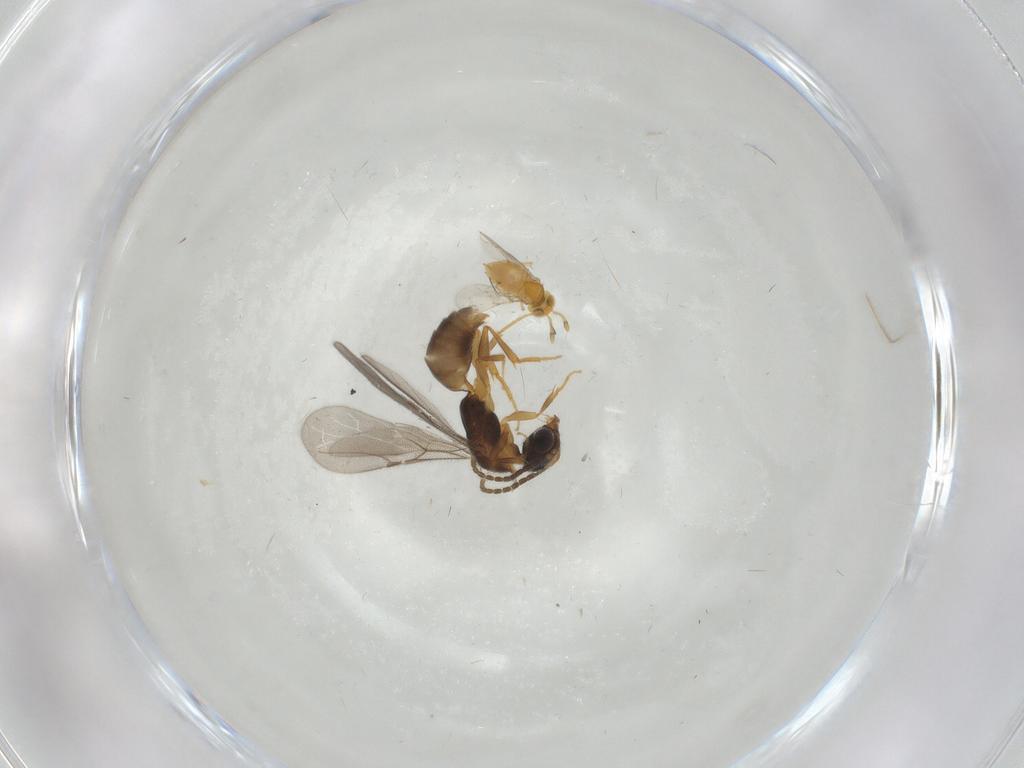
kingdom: Animalia
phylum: Arthropoda
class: Insecta
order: Hymenoptera
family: Bethylidae
